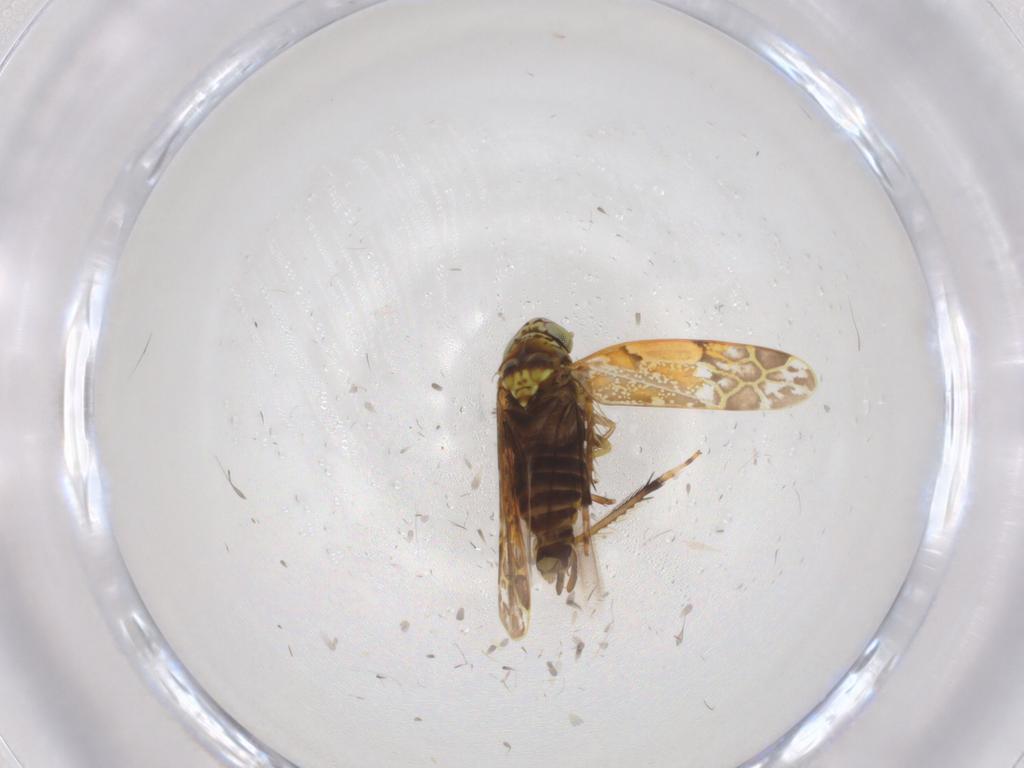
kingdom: Animalia
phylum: Arthropoda
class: Insecta
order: Hemiptera
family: Cicadellidae
